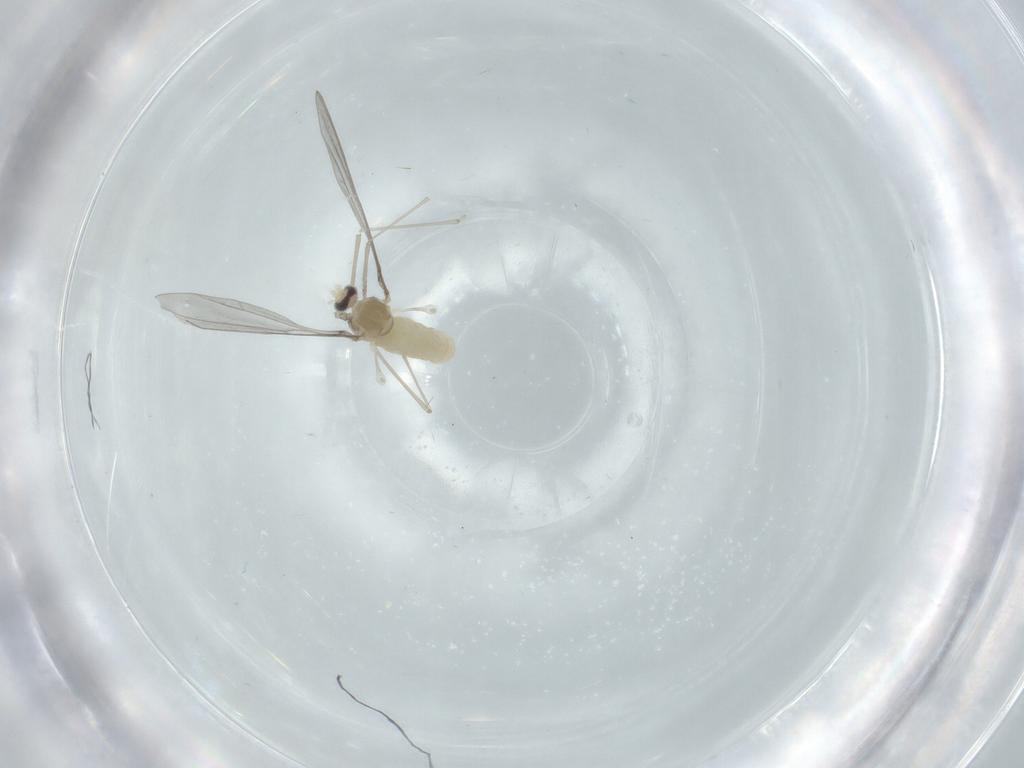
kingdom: Animalia
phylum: Arthropoda
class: Insecta
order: Diptera
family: Cecidomyiidae
